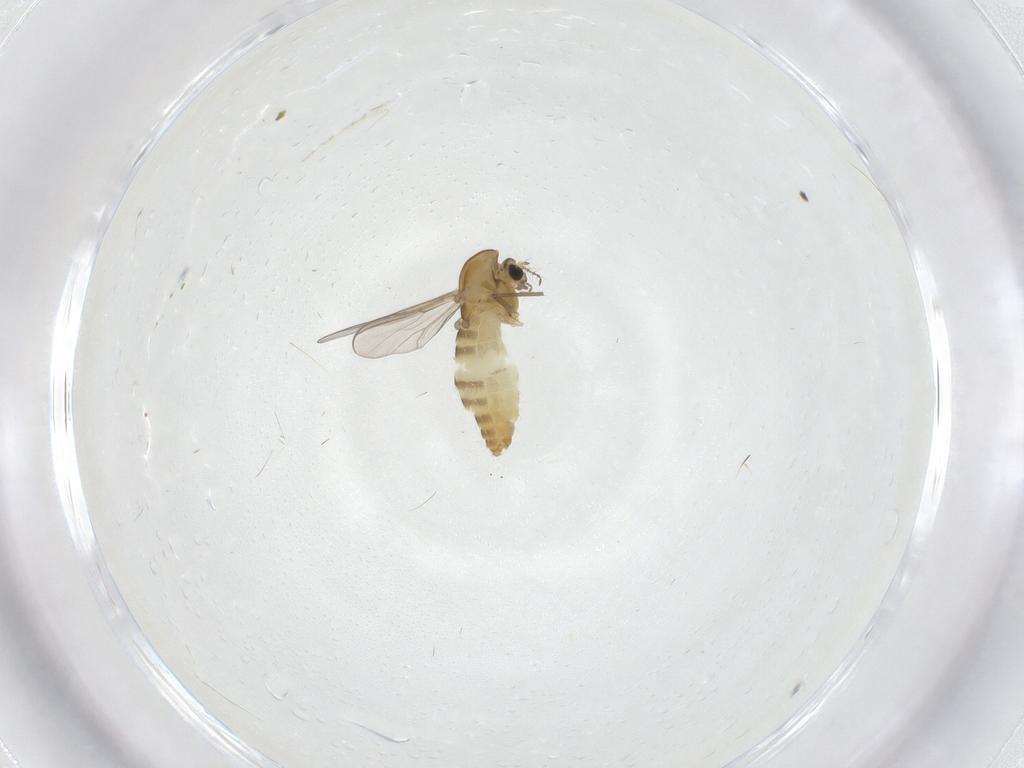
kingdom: Animalia
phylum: Arthropoda
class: Insecta
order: Diptera
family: Chironomidae
